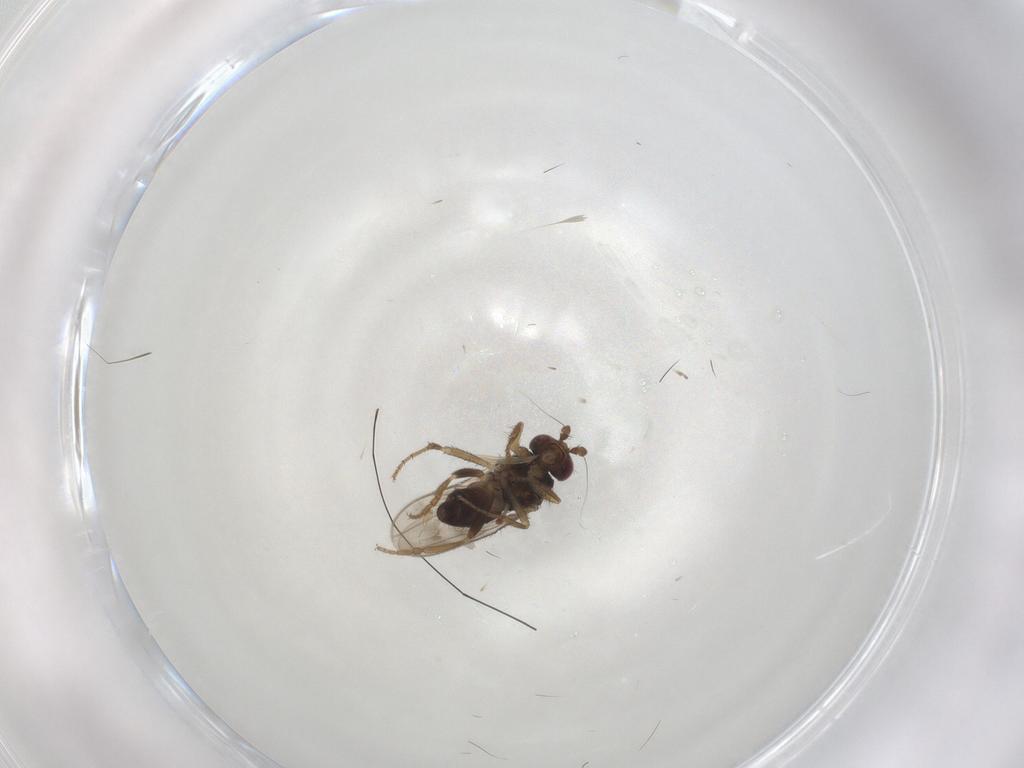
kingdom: Animalia
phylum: Arthropoda
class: Insecta
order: Diptera
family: Sphaeroceridae
